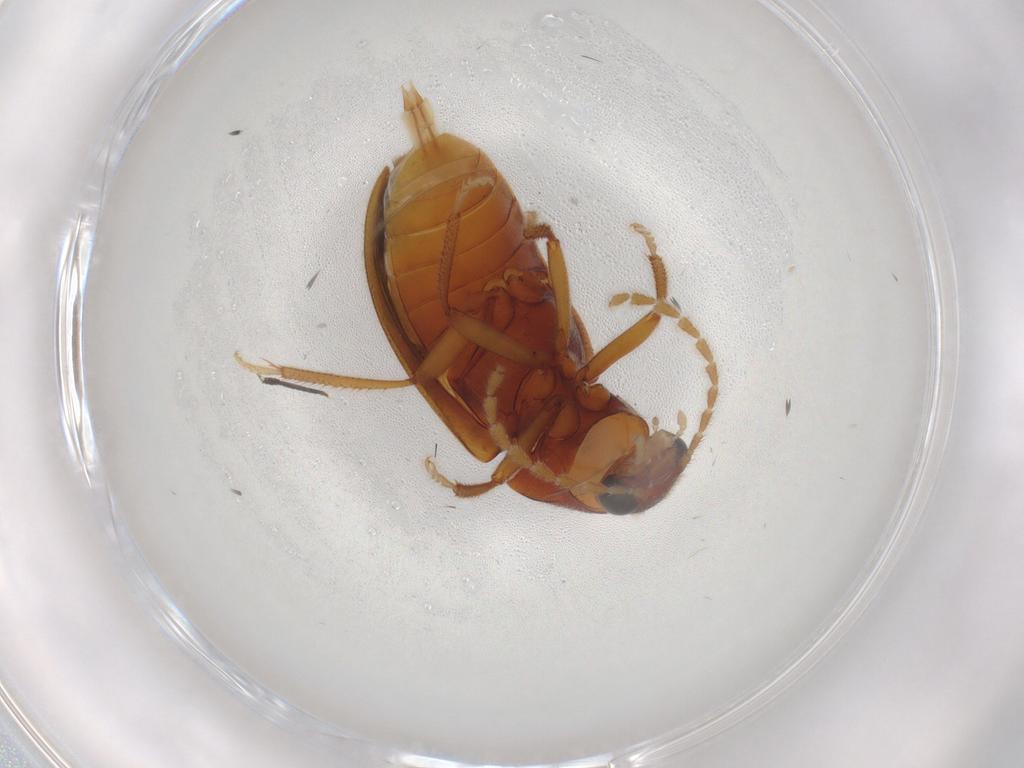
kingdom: Animalia
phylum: Arthropoda
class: Insecta
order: Coleoptera
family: Ptilodactylidae
